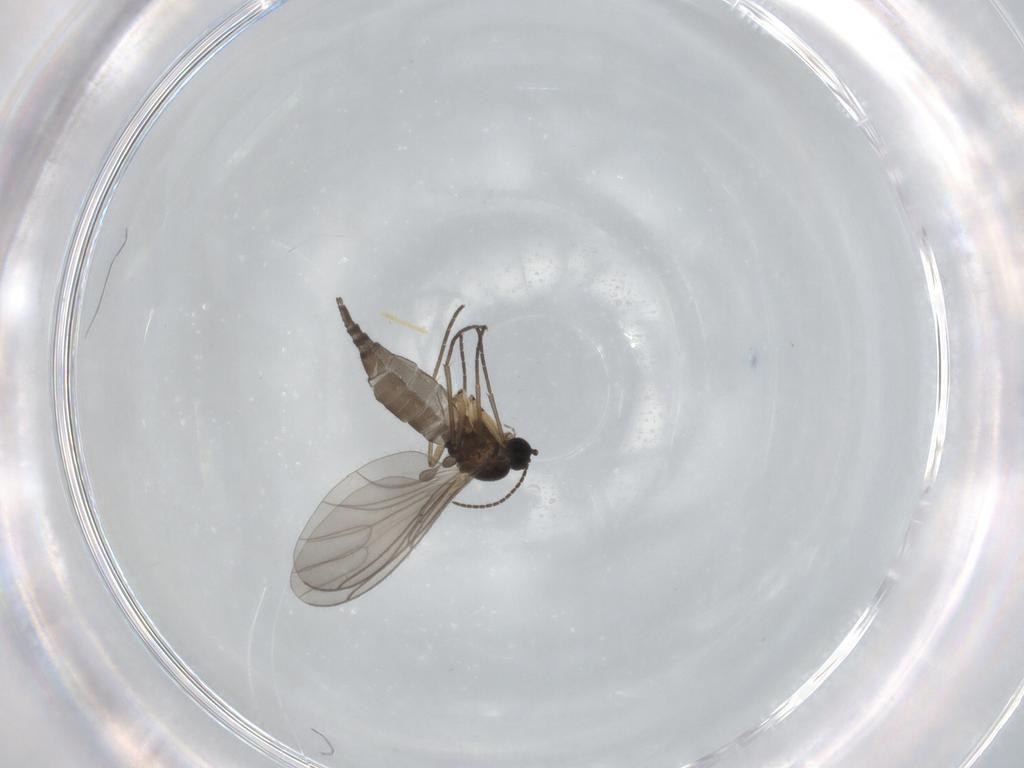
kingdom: Animalia
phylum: Arthropoda
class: Insecta
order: Diptera
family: Sciaridae
